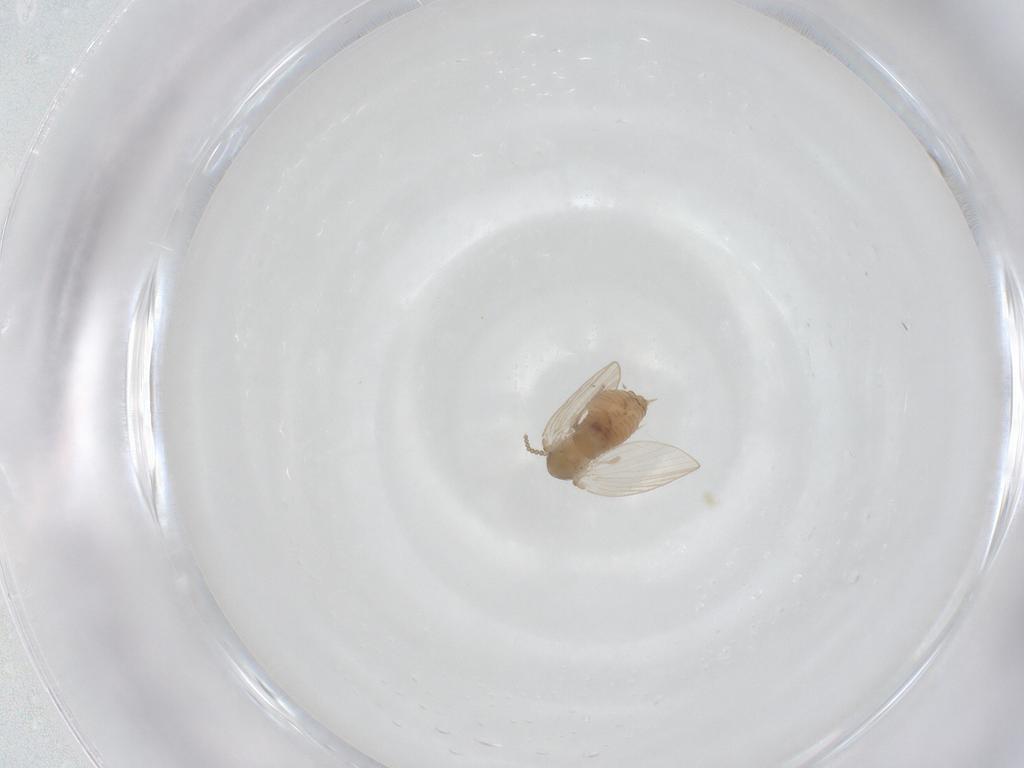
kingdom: Animalia
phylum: Arthropoda
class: Insecta
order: Diptera
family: Psychodidae
